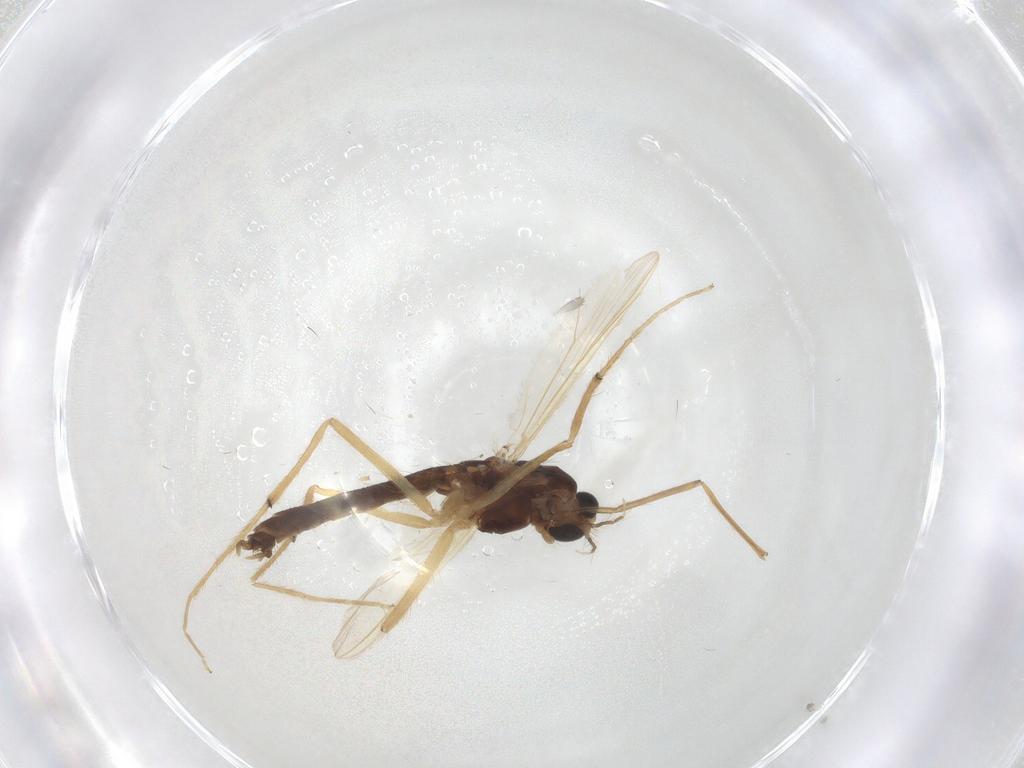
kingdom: Animalia
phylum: Arthropoda
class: Insecta
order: Diptera
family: Chironomidae
